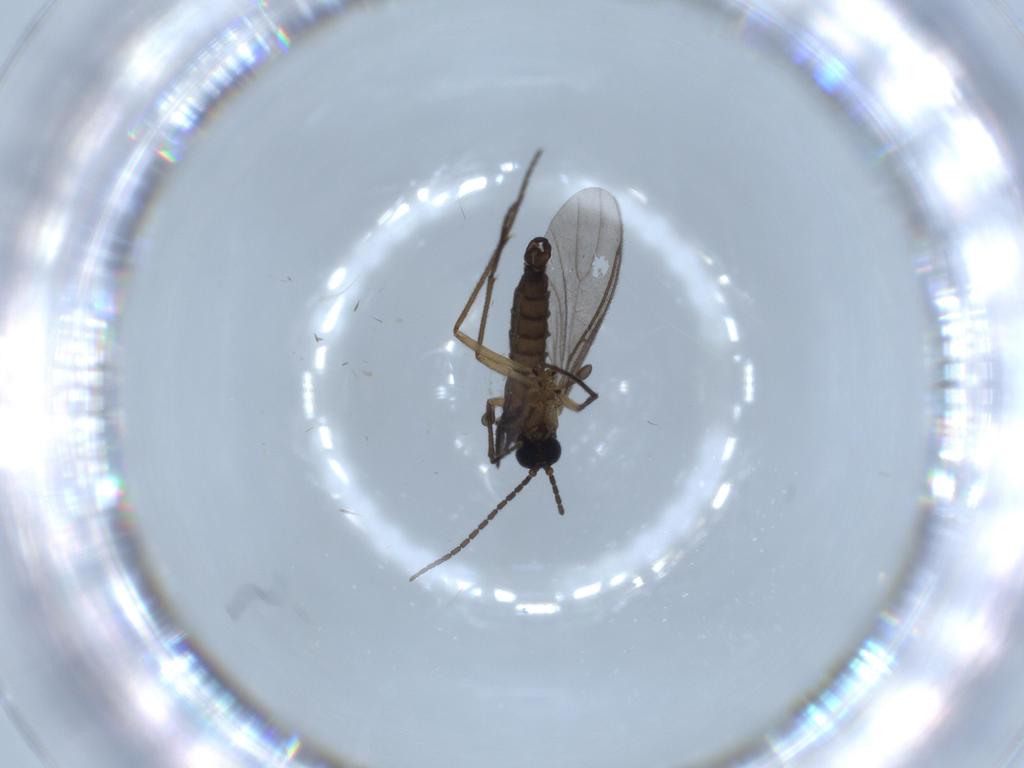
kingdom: Animalia
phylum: Arthropoda
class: Insecta
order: Diptera
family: Sciaridae
